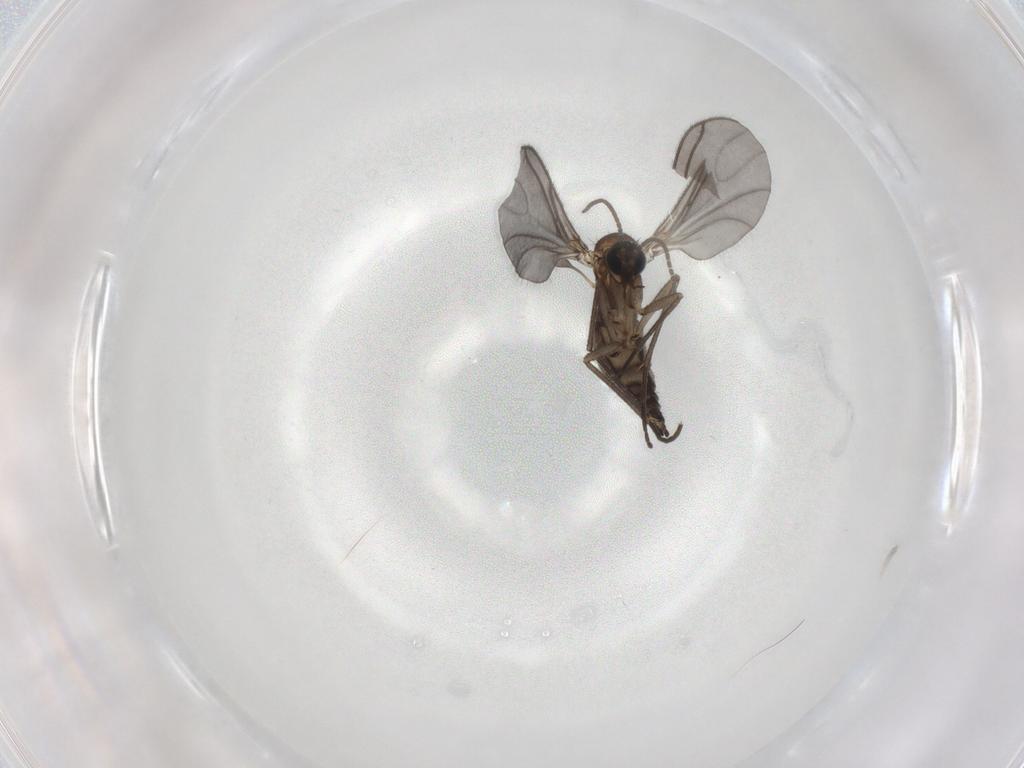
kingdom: Animalia
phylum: Arthropoda
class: Insecta
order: Diptera
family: Sciaridae
